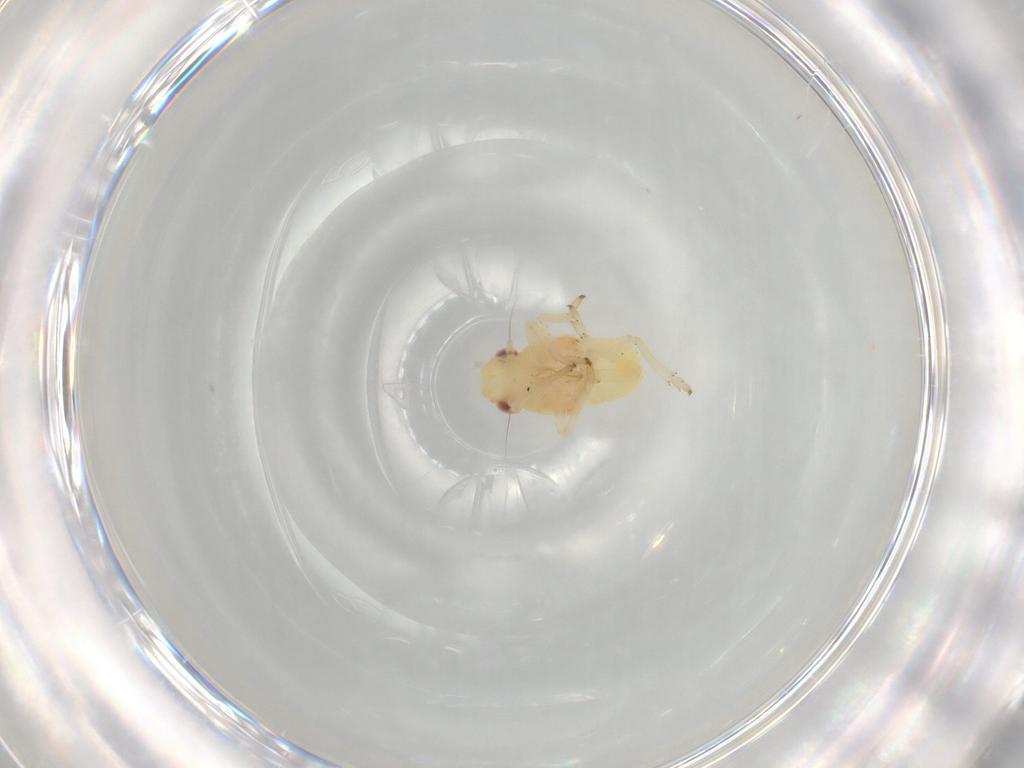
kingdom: Animalia
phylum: Arthropoda
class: Insecta
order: Hemiptera
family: Caliscelidae
